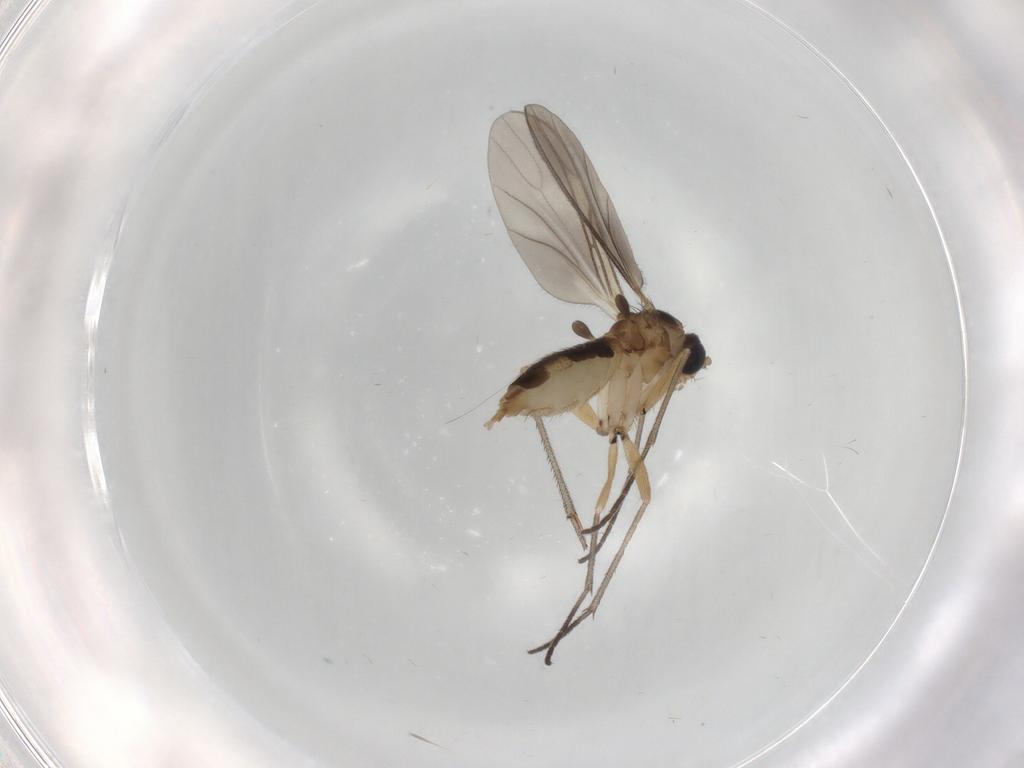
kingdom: Animalia
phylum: Arthropoda
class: Insecta
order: Diptera
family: Sciaridae
